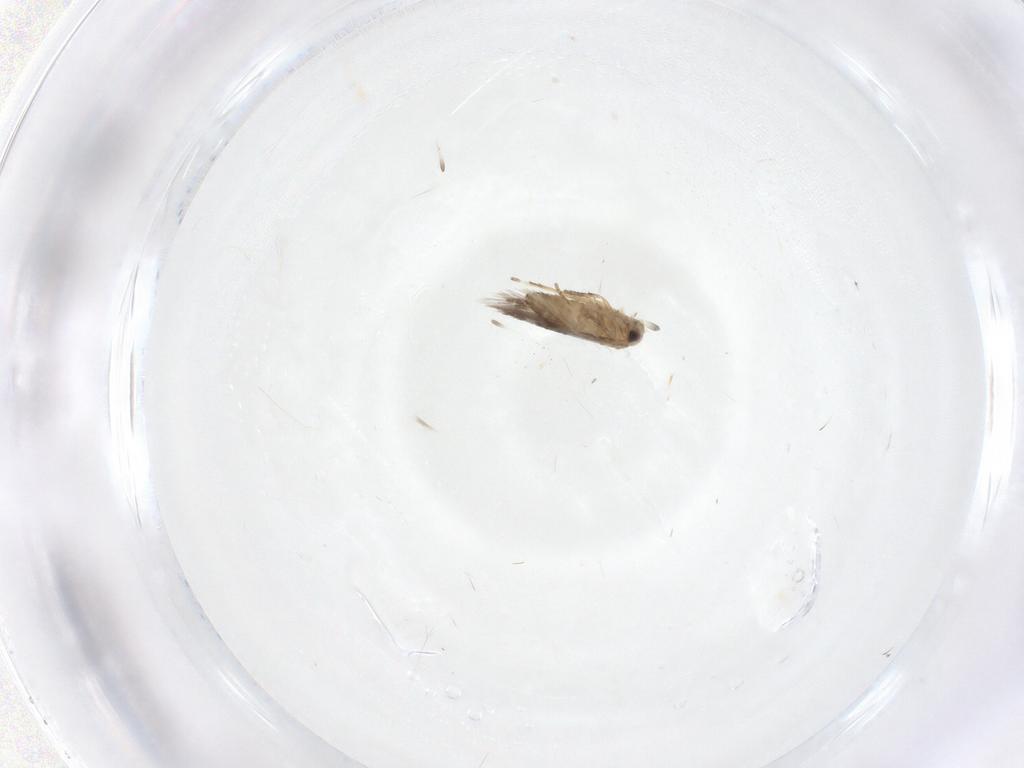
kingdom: Animalia
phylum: Arthropoda
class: Insecta
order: Lepidoptera
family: Nepticulidae
